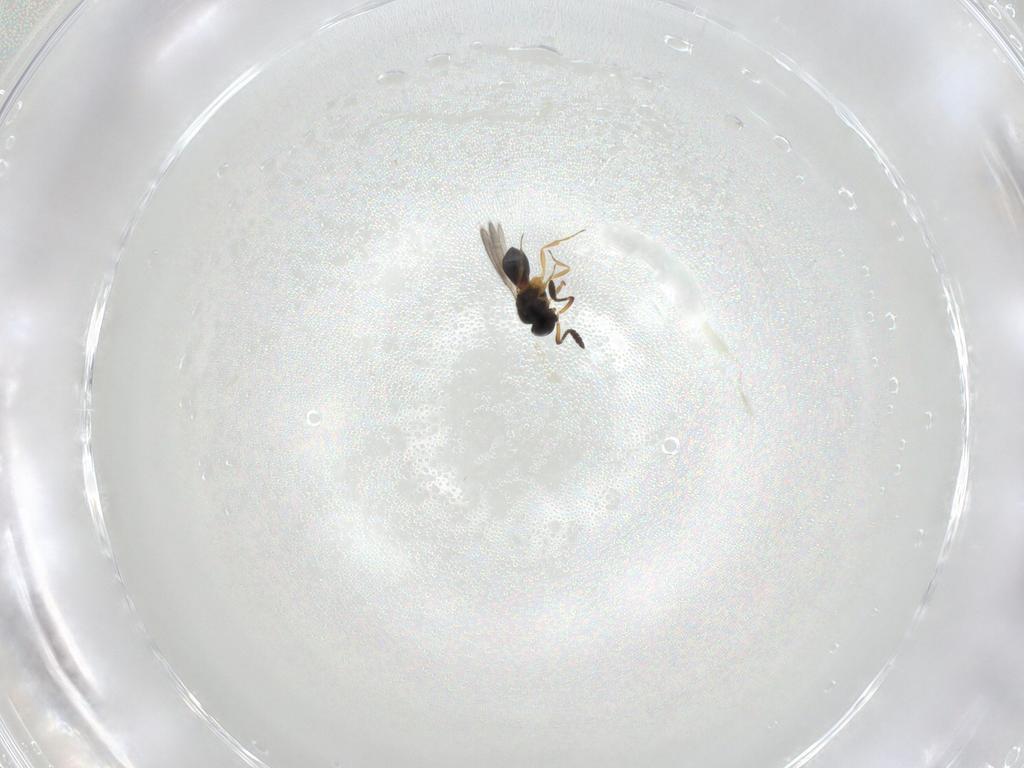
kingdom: Animalia
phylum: Arthropoda
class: Insecta
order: Hymenoptera
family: Scelionidae
